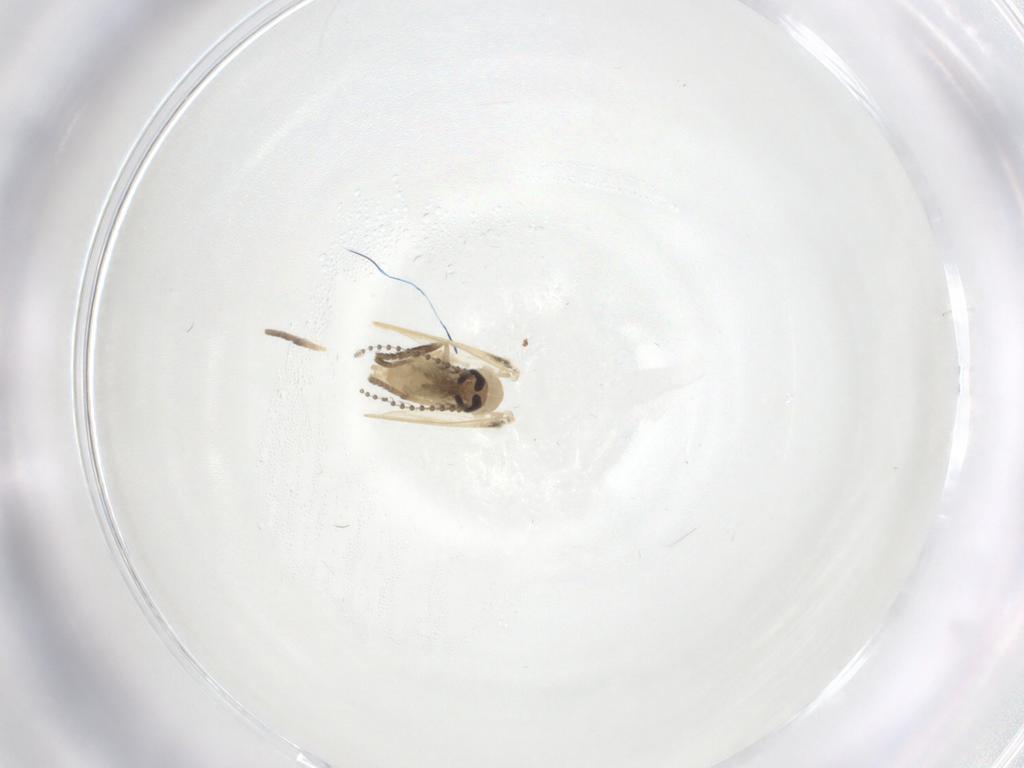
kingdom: Animalia
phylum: Arthropoda
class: Insecta
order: Diptera
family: Psychodidae
